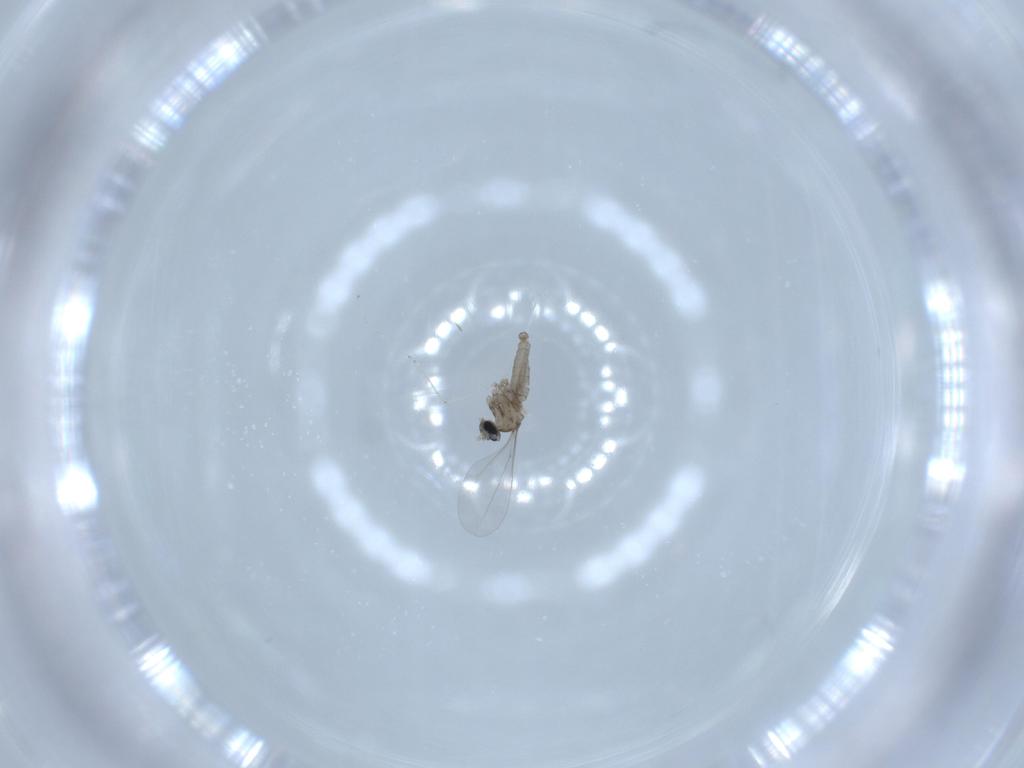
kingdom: Animalia
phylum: Arthropoda
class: Insecta
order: Diptera
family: Cecidomyiidae
